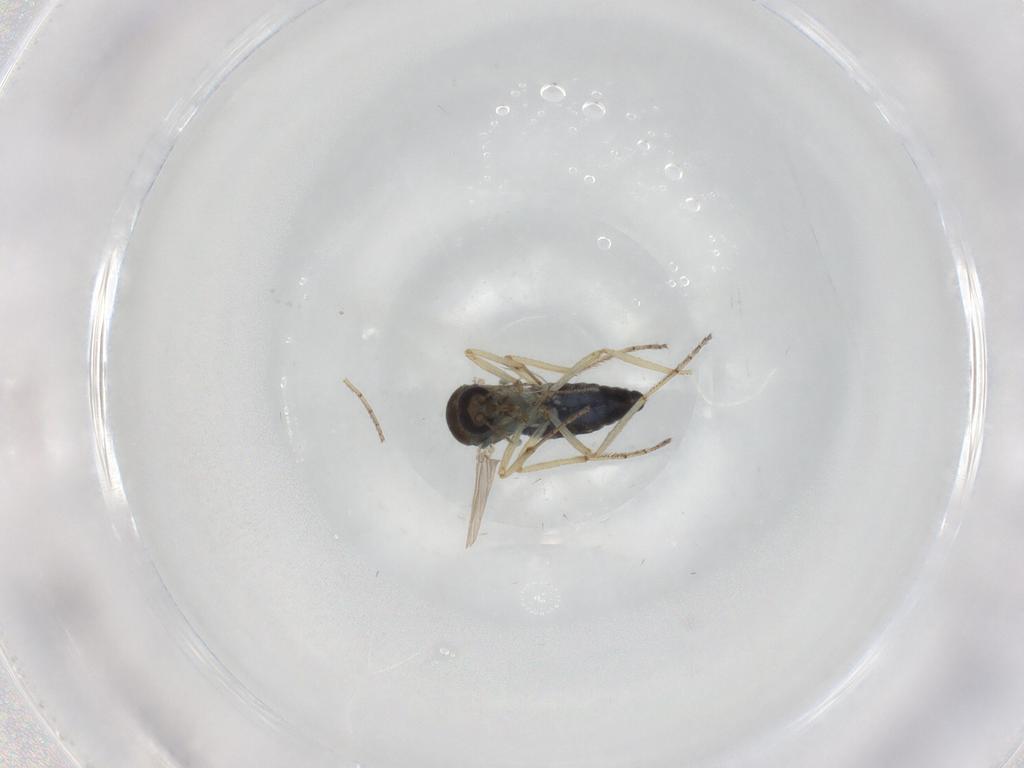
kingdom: Animalia
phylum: Arthropoda
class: Insecta
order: Diptera
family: Ceratopogonidae
